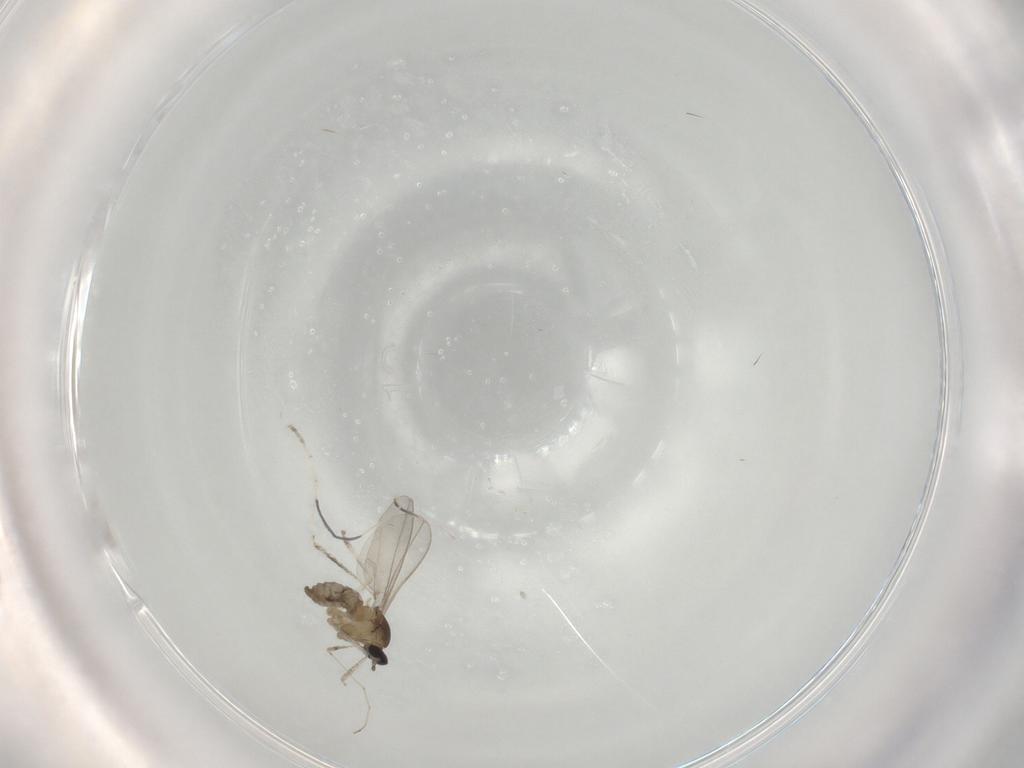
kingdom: Animalia
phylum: Arthropoda
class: Insecta
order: Diptera
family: Cecidomyiidae
